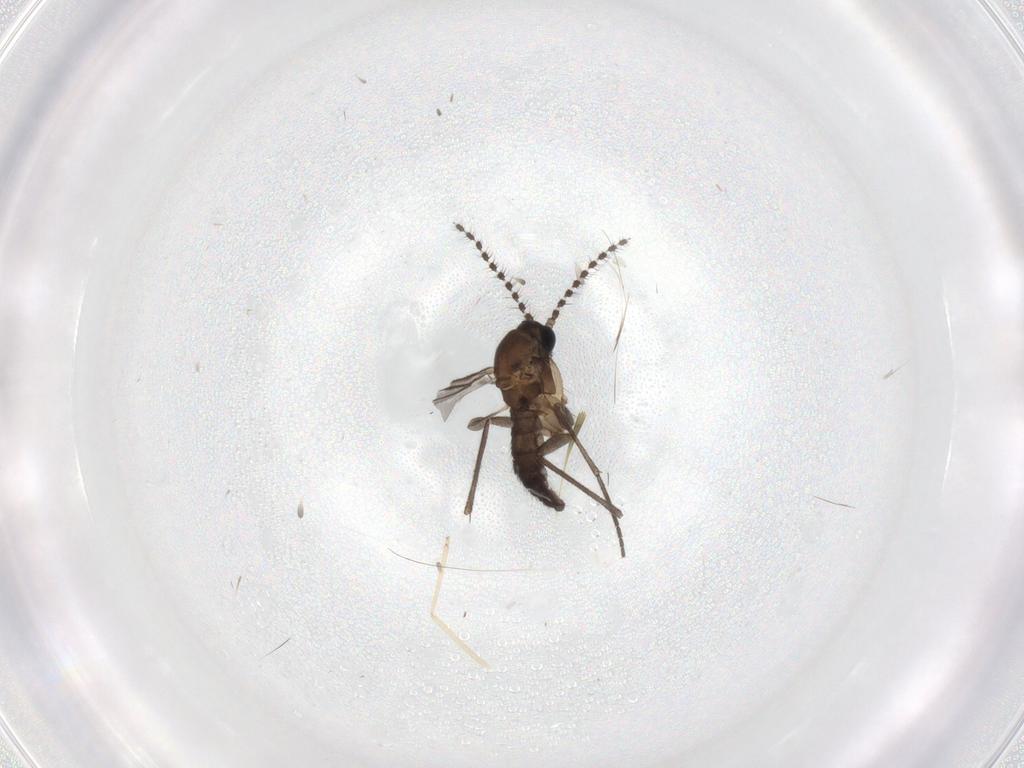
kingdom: Animalia
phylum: Arthropoda
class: Insecta
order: Diptera
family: Sciaridae
